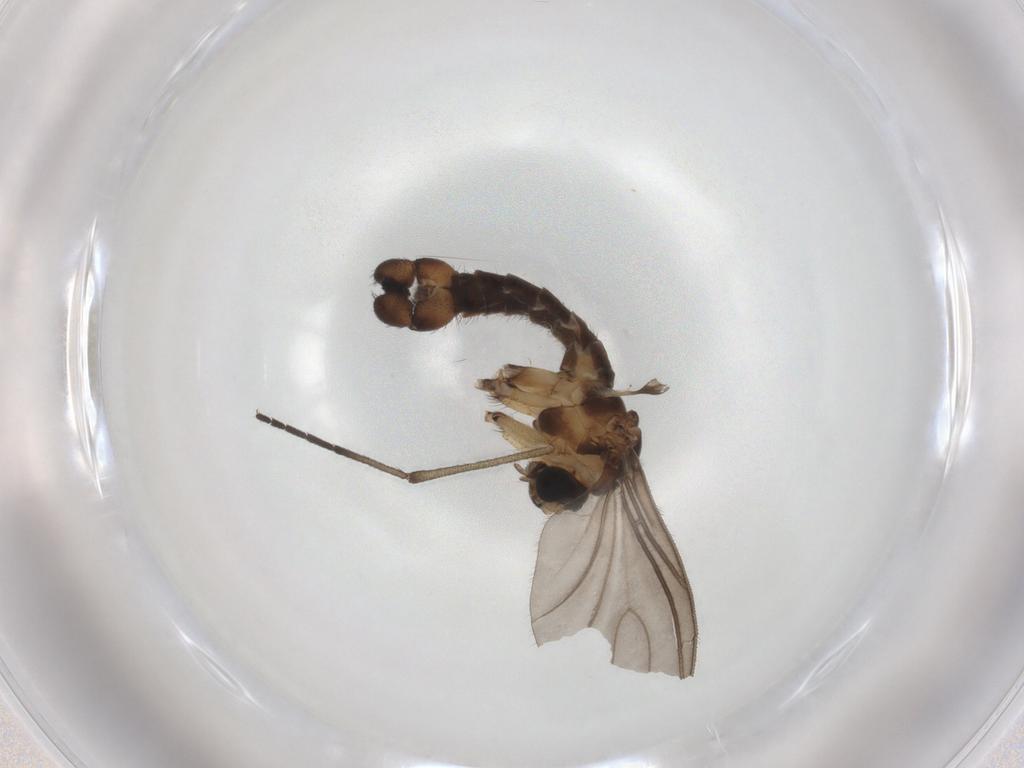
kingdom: Animalia
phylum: Arthropoda
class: Insecta
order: Diptera
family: Sciaridae
